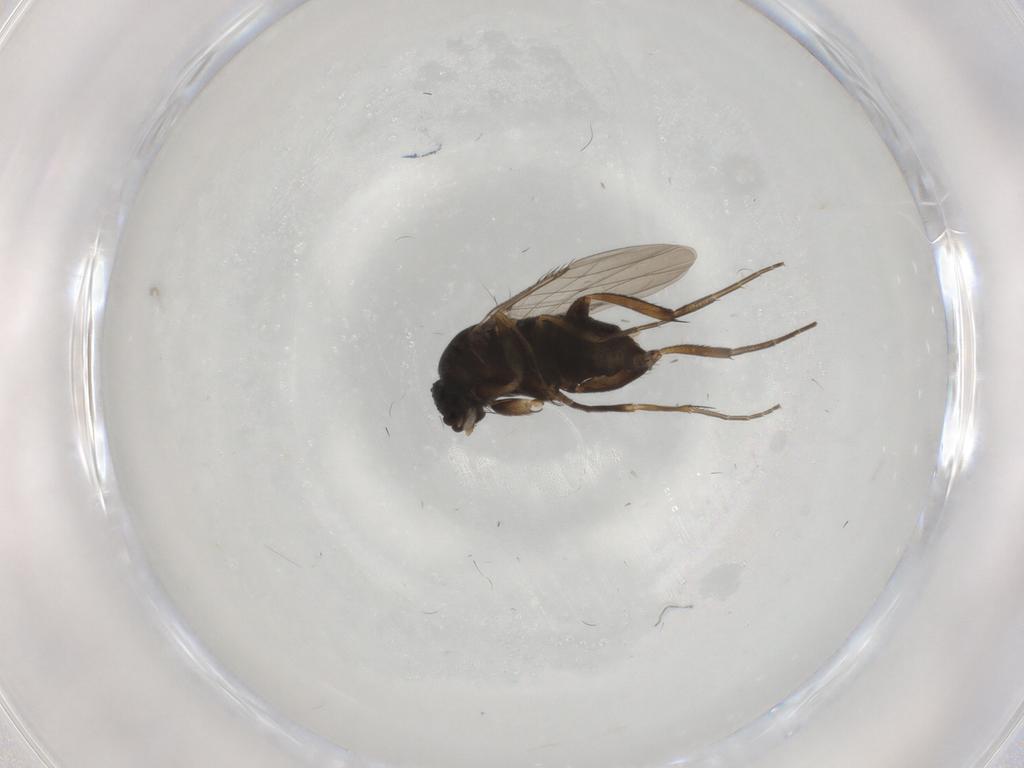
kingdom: Animalia
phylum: Arthropoda
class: Insecta
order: Diptera
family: Phoridae
